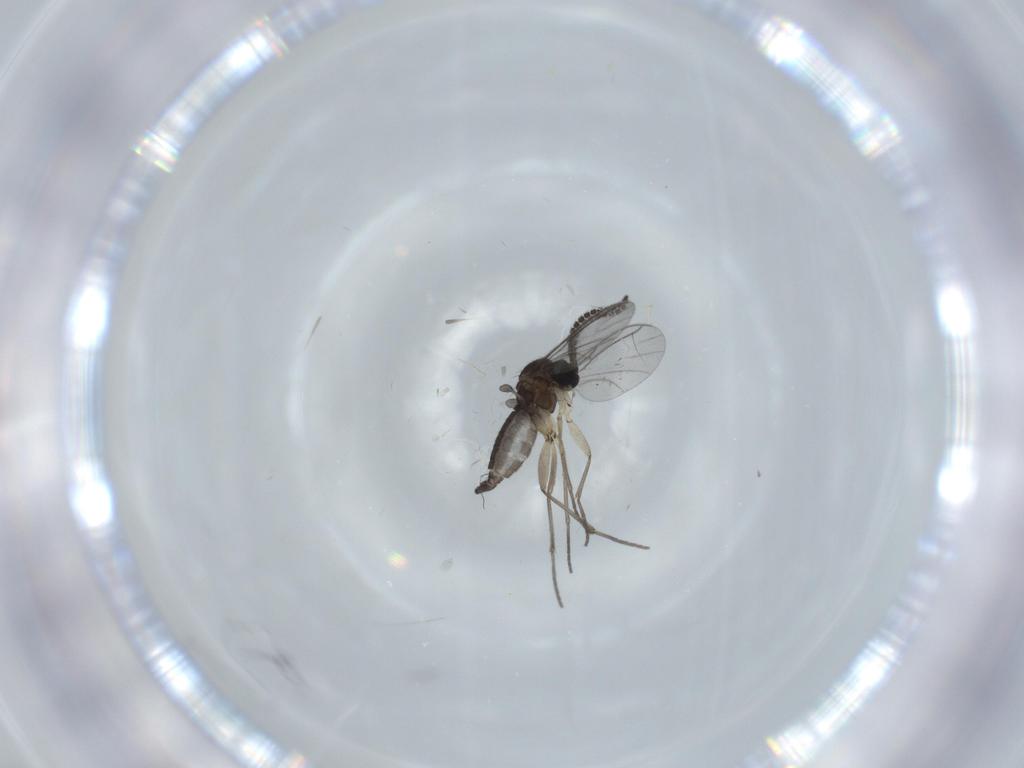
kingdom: Animalia
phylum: Arthropoda
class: Insecta
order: Diptera
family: Sciaridae
